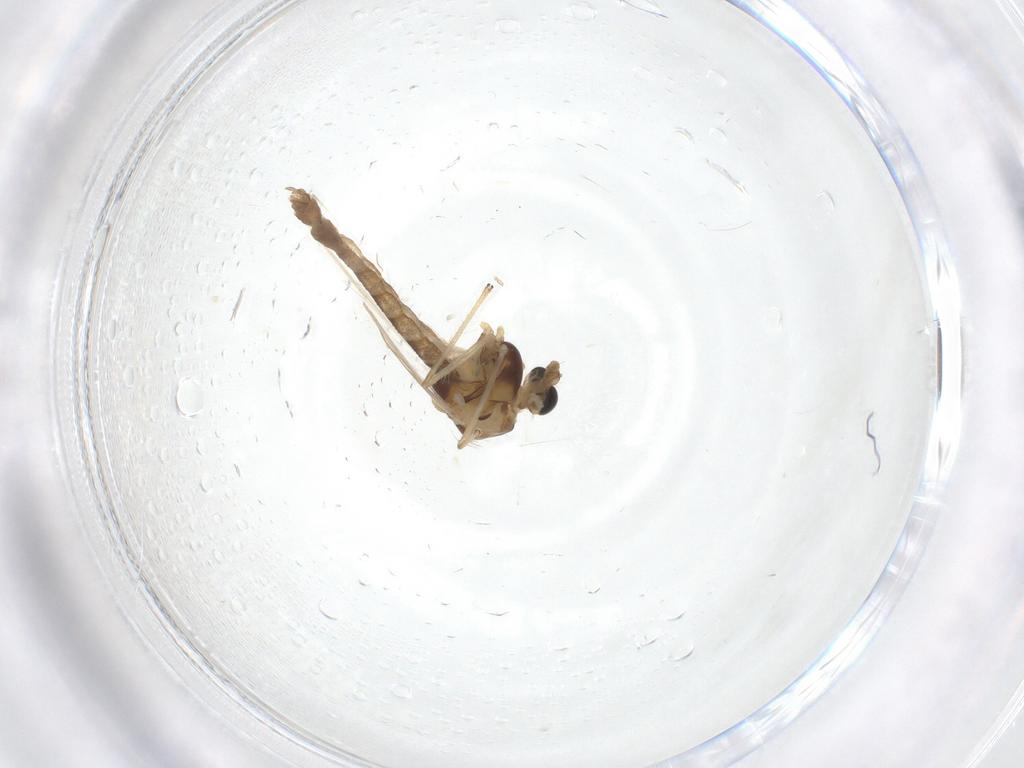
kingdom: Animalia
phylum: Arthropoda
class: Insecta
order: Diptera
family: Chironomidae
